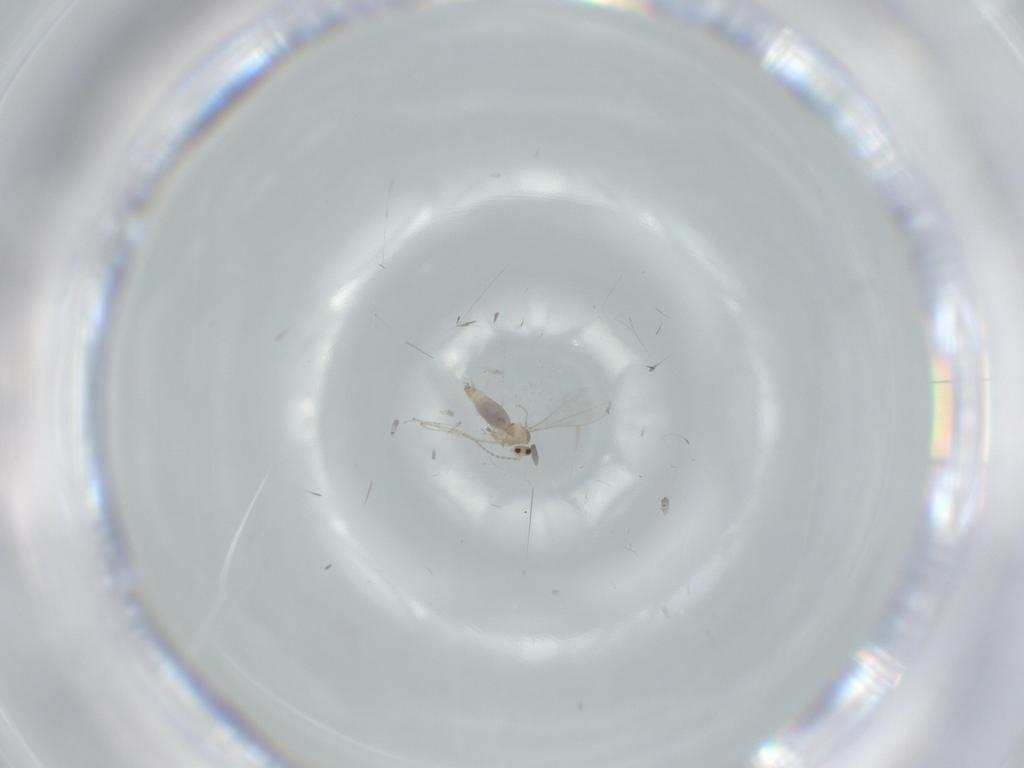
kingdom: Animalia
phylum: Arthropoda
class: Insecta
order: Diptera
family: Cecidomyiidae
